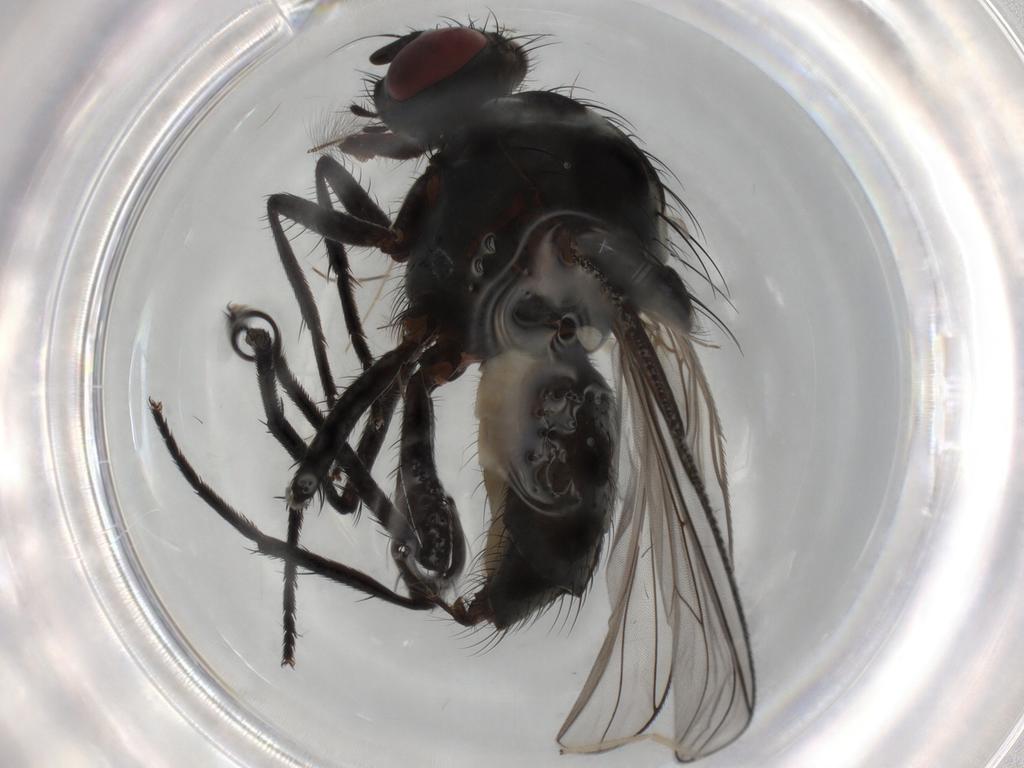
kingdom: Animalia
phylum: Arthropoda
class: Insecta
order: Diptera
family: Anthomyiidae
